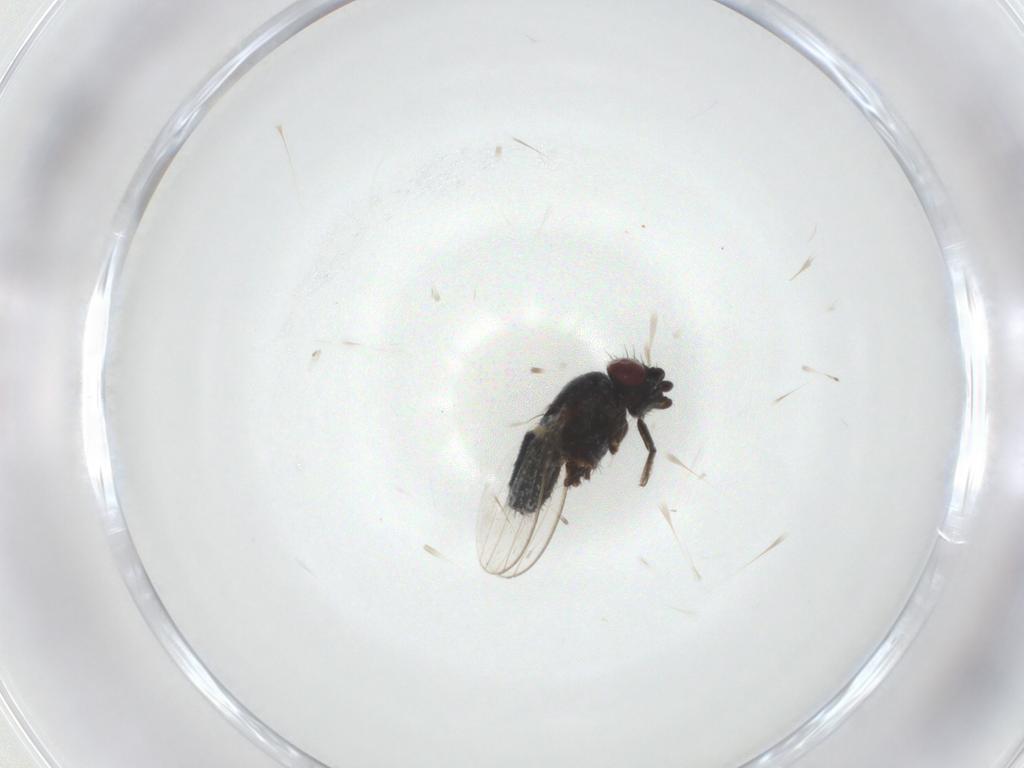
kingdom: Animalia
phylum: Arthropoda
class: Insecta
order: Diptera
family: Milichiidae
